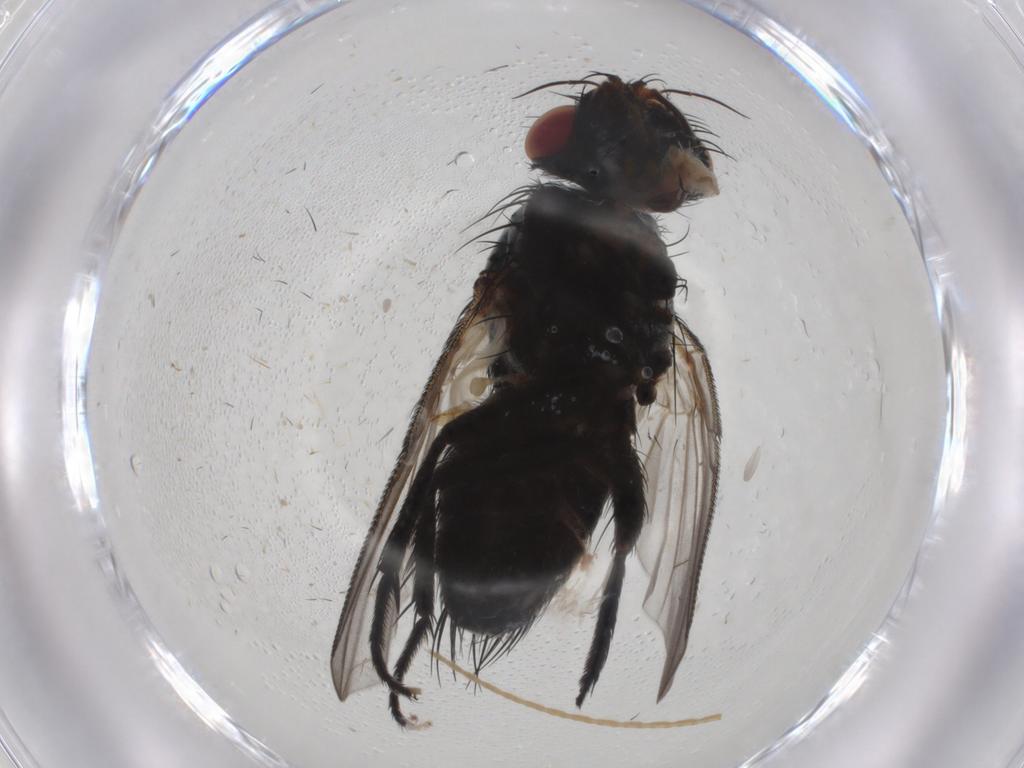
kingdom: Animalia
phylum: Arthropoda
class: Insecta
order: Diptera
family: Tachinidae
